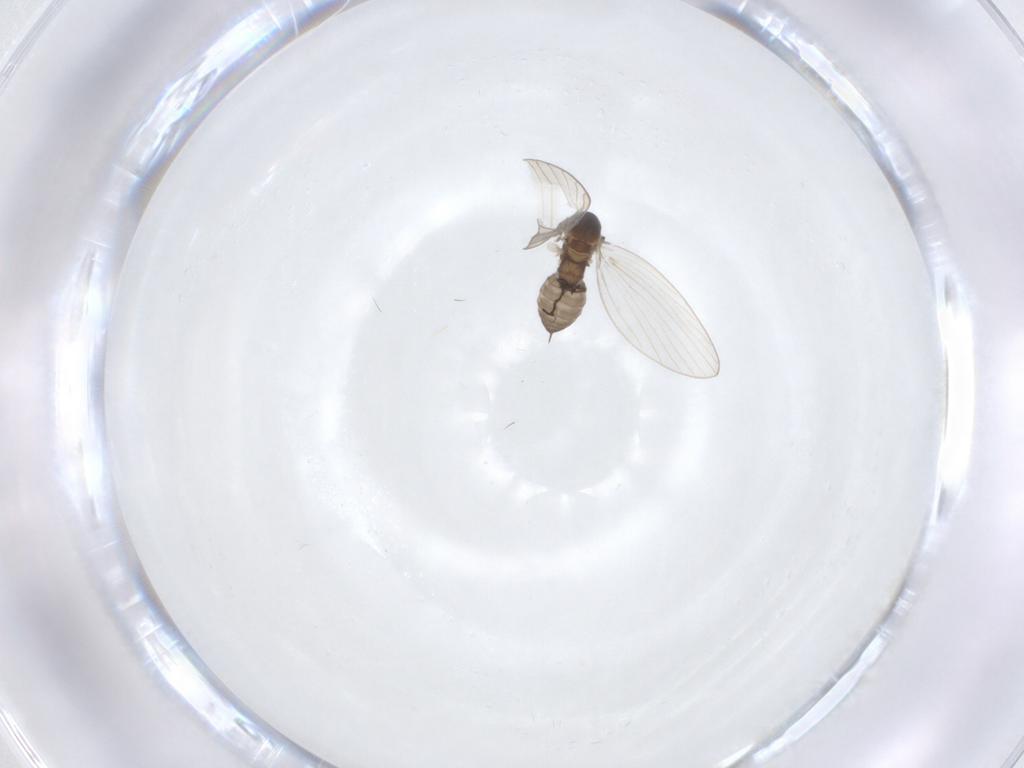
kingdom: Animalia
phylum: Arthropoda
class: Insecta
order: Diptera
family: Psychodidae
